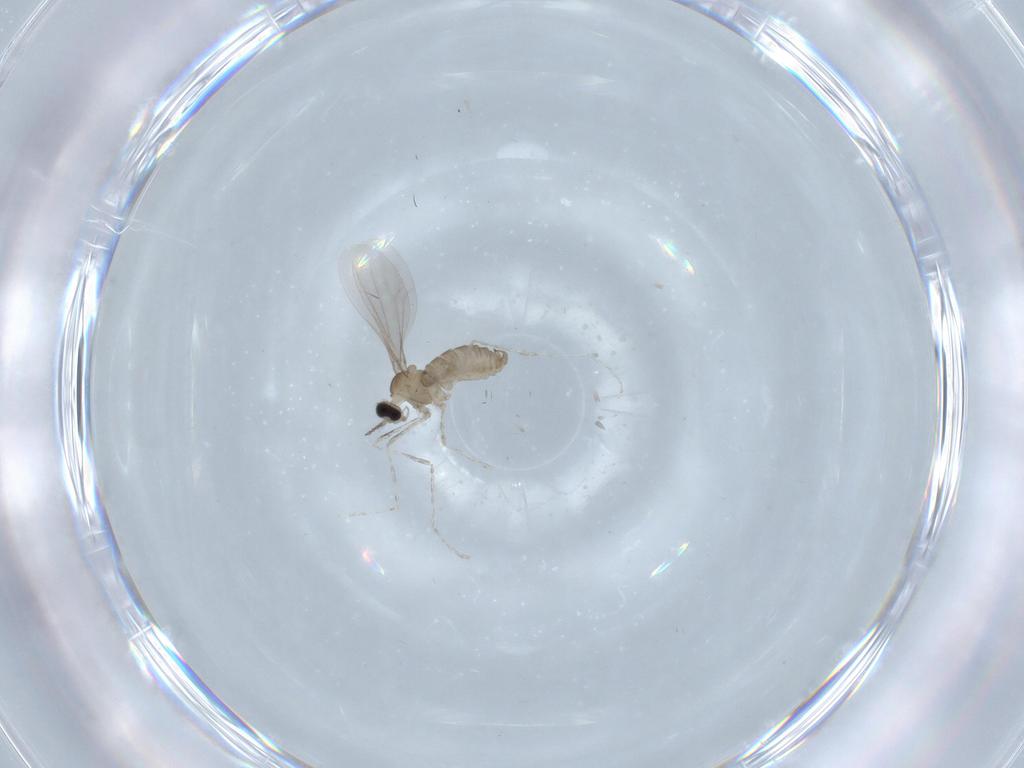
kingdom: Animalia
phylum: Arthropoda
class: Insecta
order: Diptera
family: Cecidomyiidae
